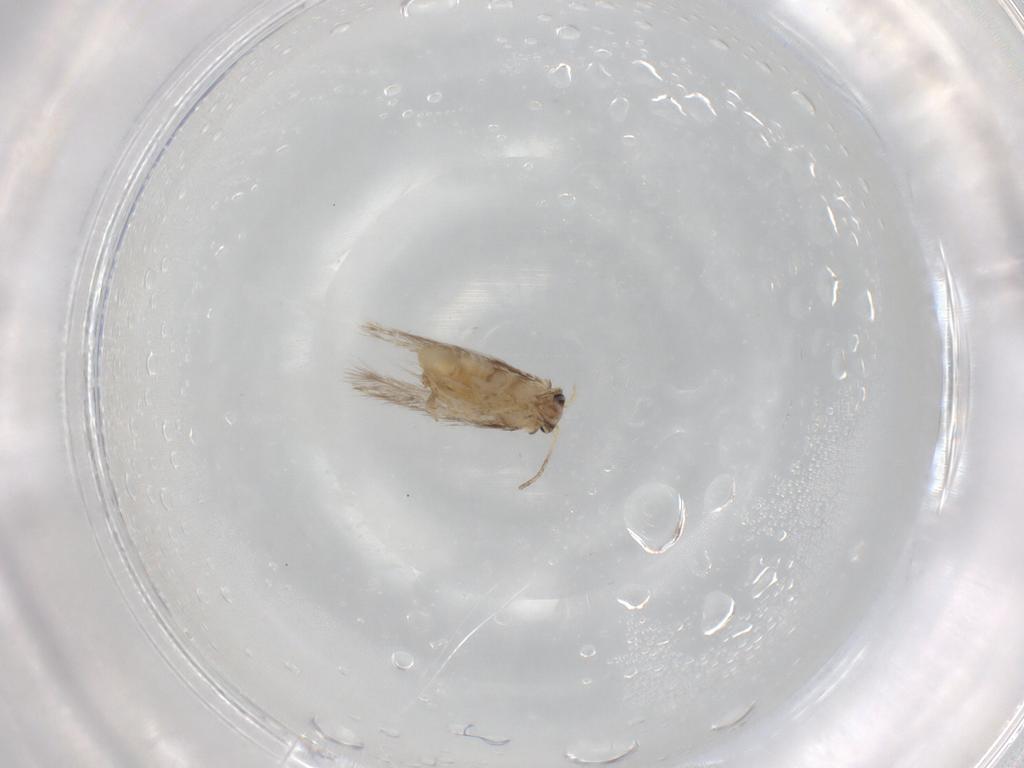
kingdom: Animalia
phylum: Arthropoda
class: Insecta
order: Lepidoptera
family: Nepticulidae
